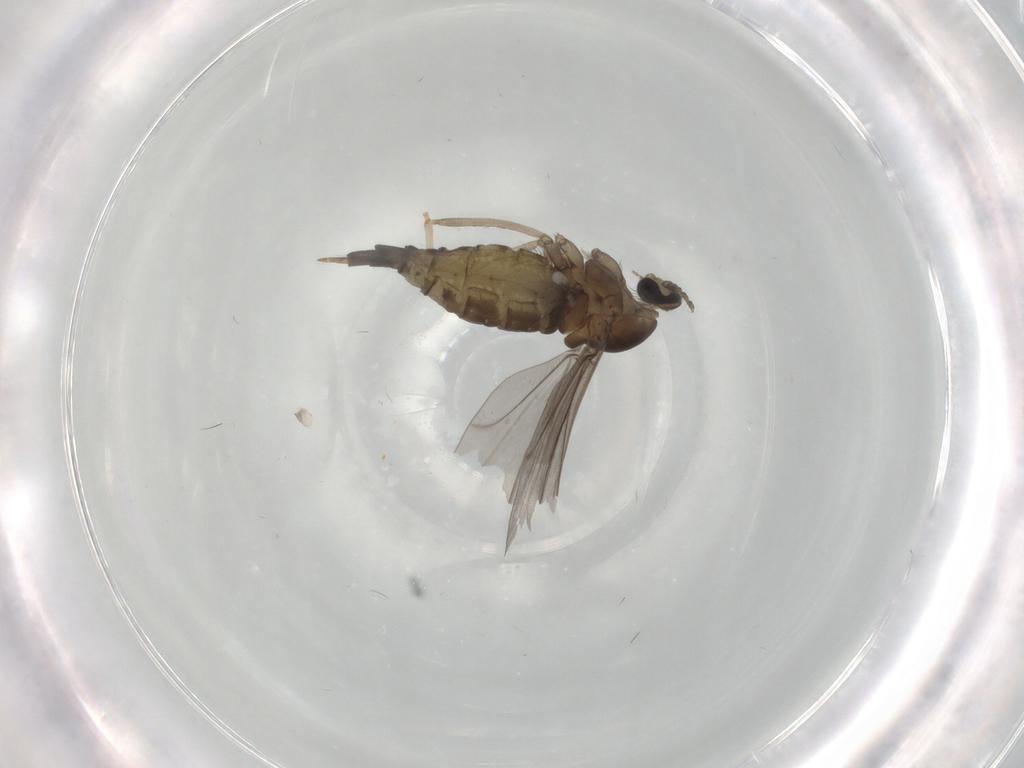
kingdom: Animalia
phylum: Arthropoda
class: Insecta
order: Diptera
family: Cecidomyiidae
